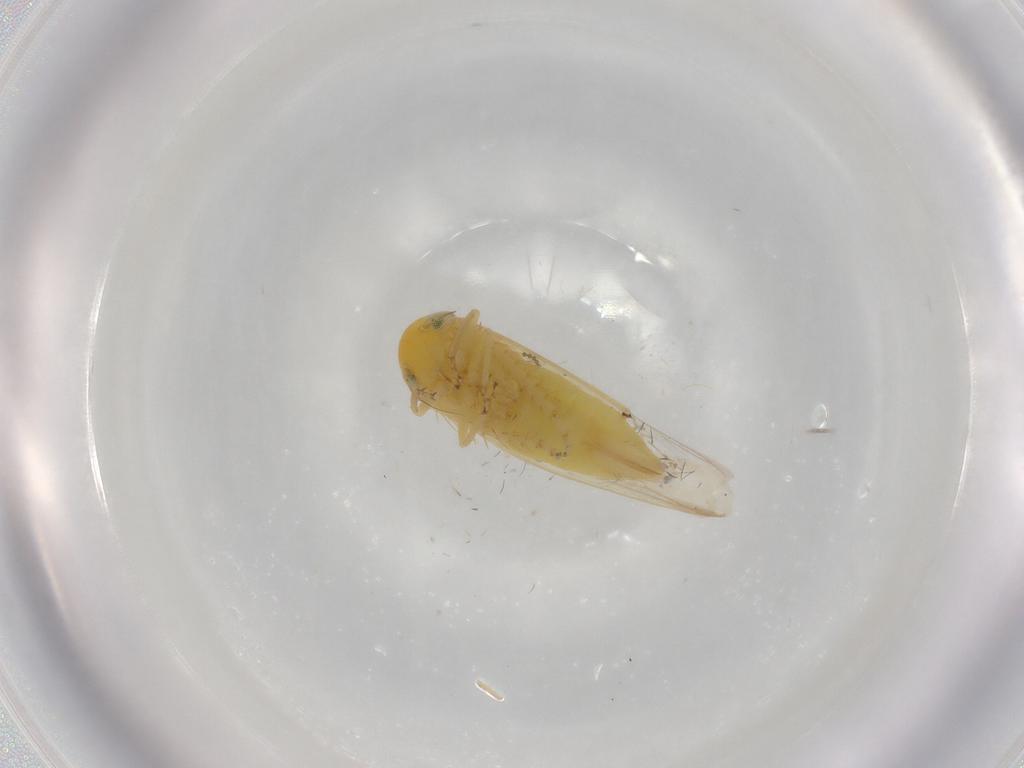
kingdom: Animalia
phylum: Arthropoda
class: Insecta
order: Hemiptera
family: Cicadellidae
